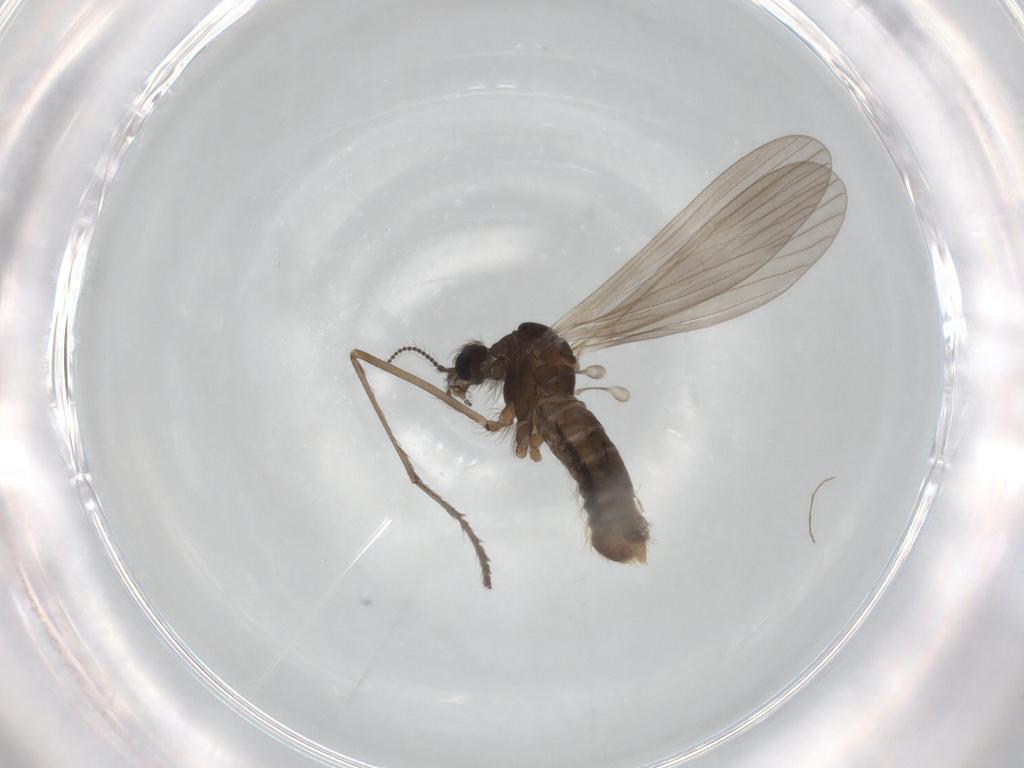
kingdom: Animalia
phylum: Arthropoda
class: Insecta
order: Diptera
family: Limoniidae
